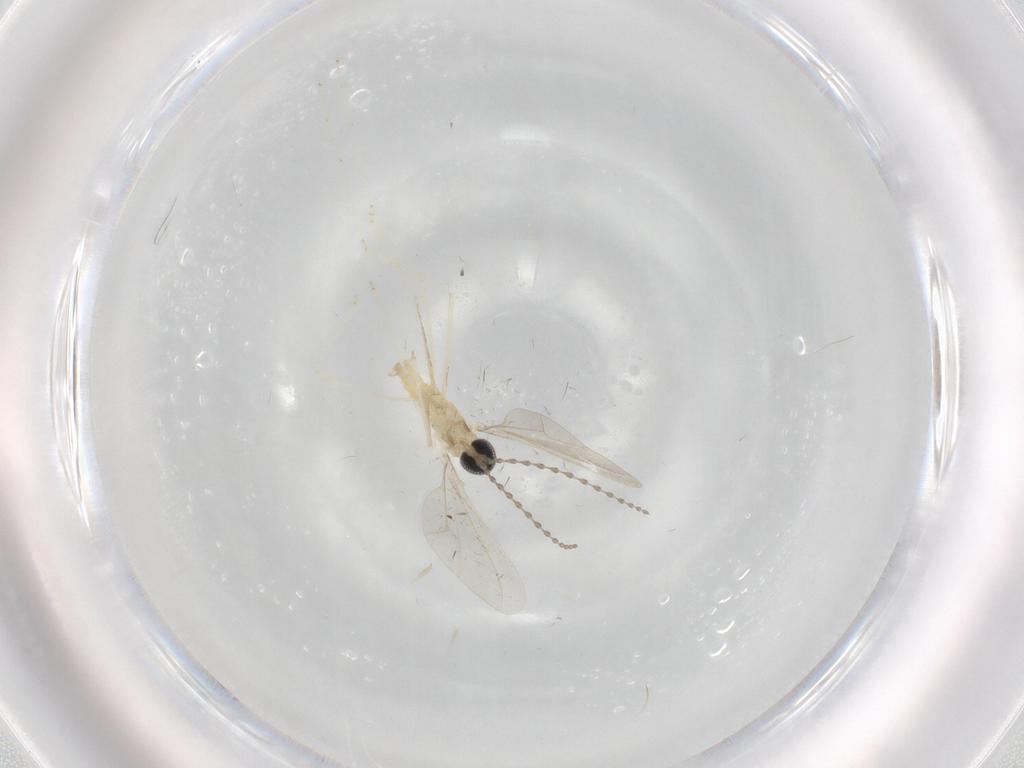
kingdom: Animalia
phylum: Arthropoda
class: Insecta
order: Diptera
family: Cecidomyiidae
